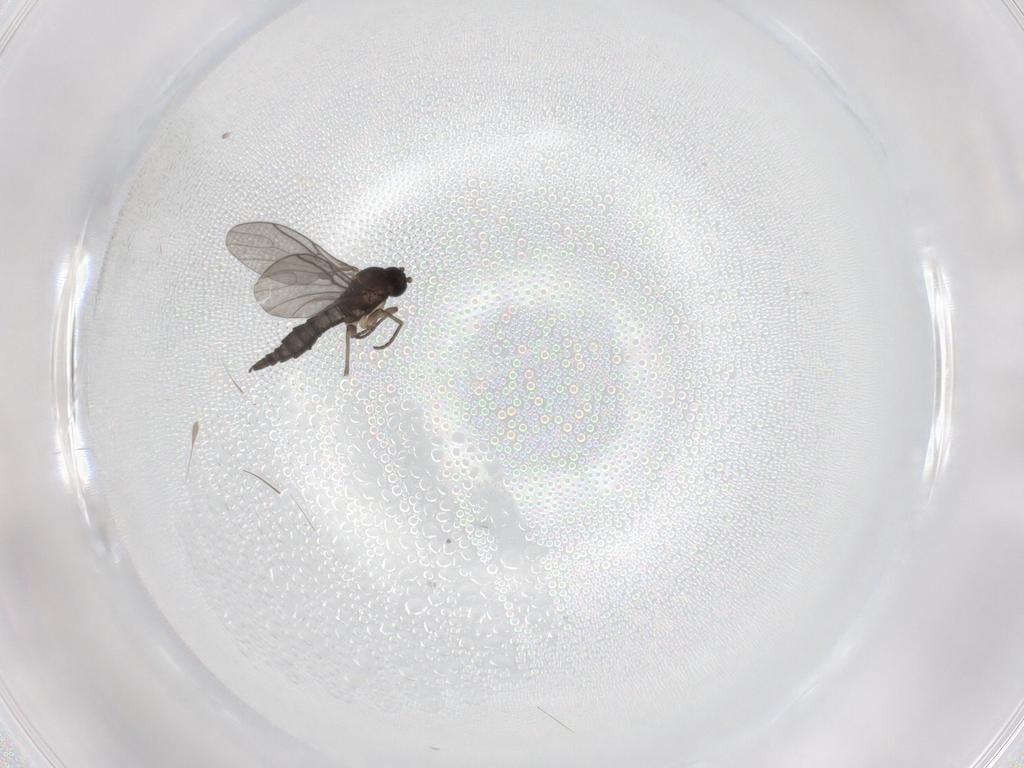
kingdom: Animalia
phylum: Arthropoda
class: Insecta
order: Diptera
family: Sciaridae
